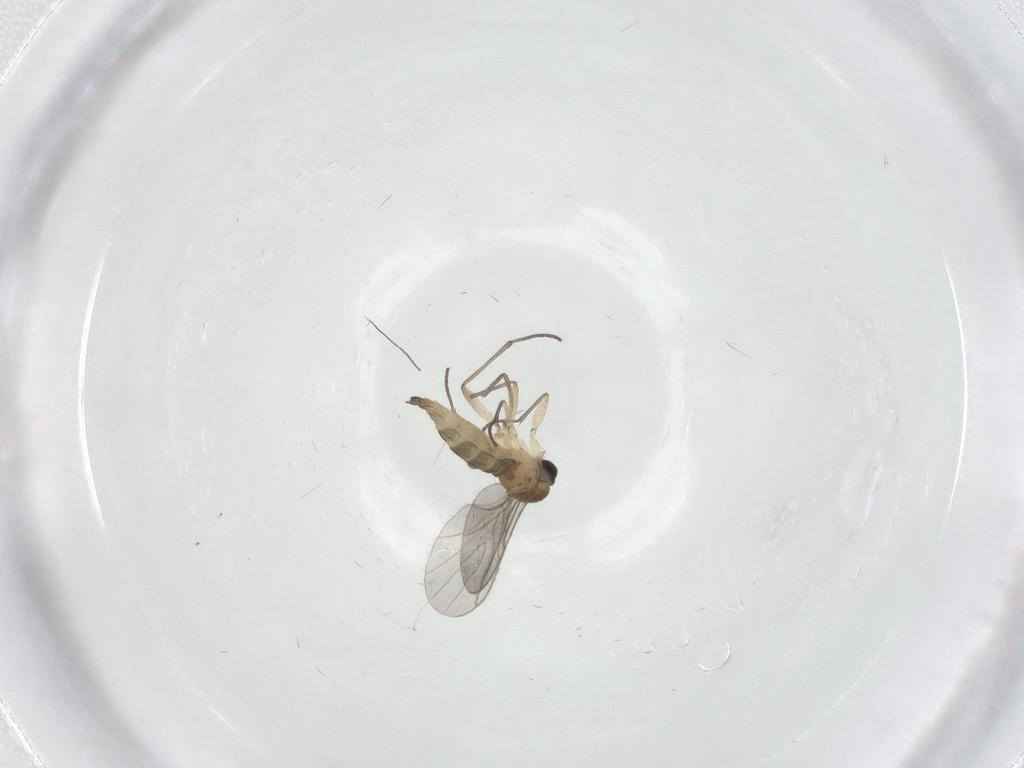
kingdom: Animalia
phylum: Arthropoda
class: Insecta
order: Diptera
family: Sciaridae
